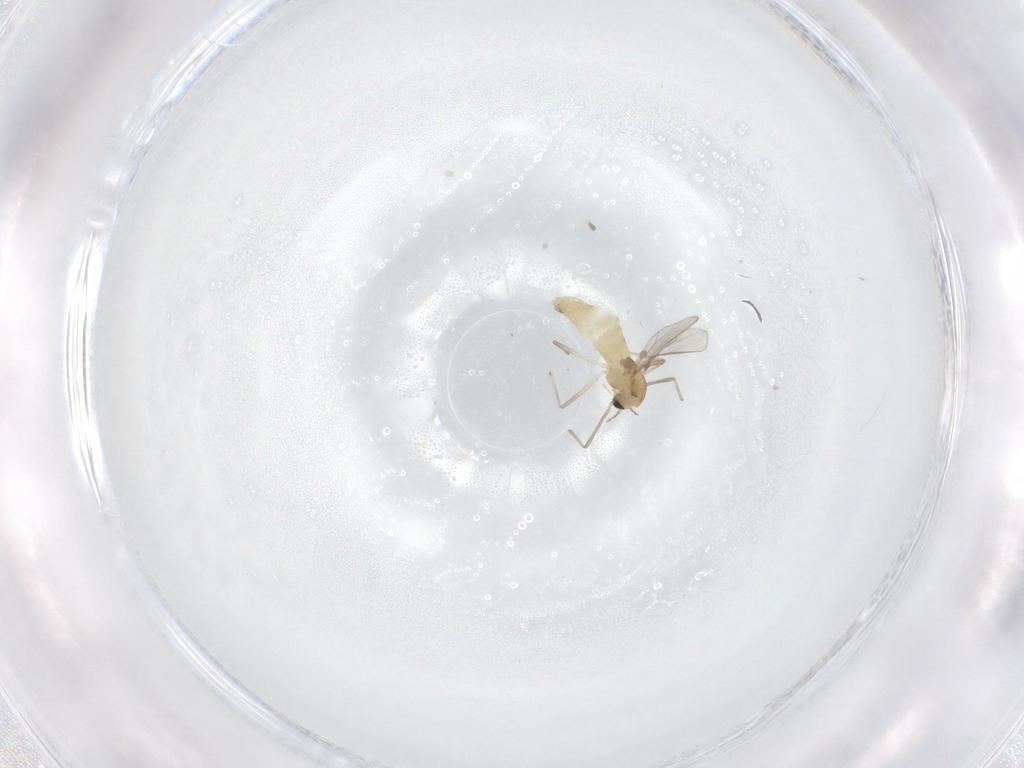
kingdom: Animalia
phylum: Arthropoda
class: Insecta
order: Diptera
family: Chironomidae
